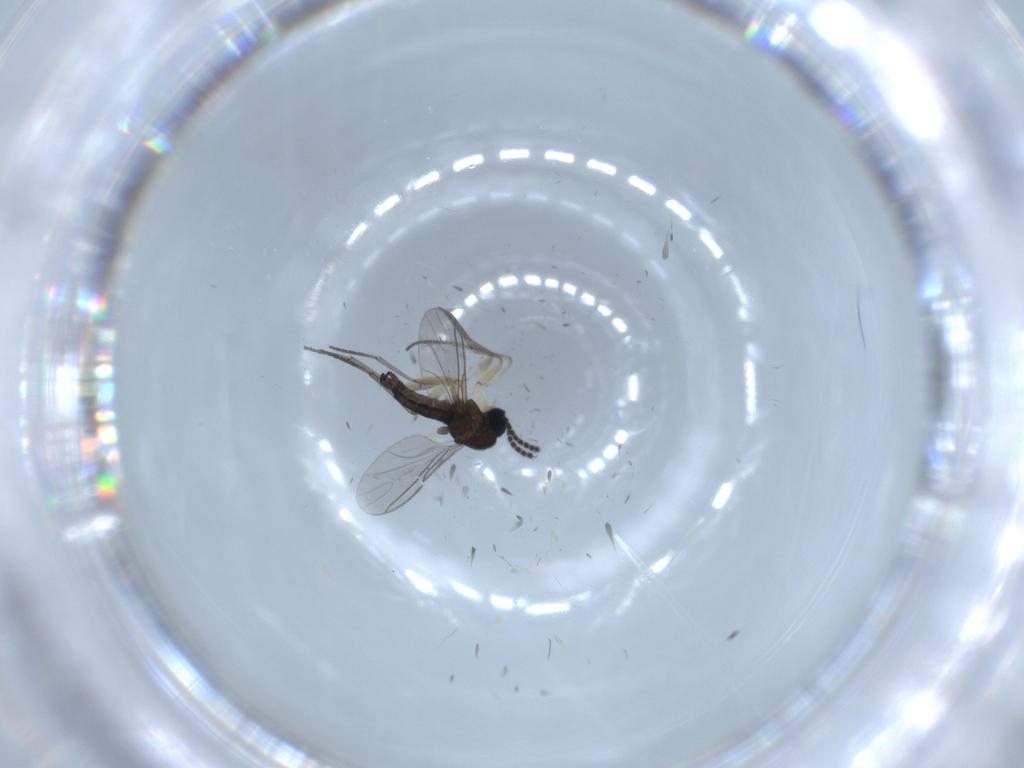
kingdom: Animalia
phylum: Arthropoda
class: Insecta
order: Diptera
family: Sciaridae
